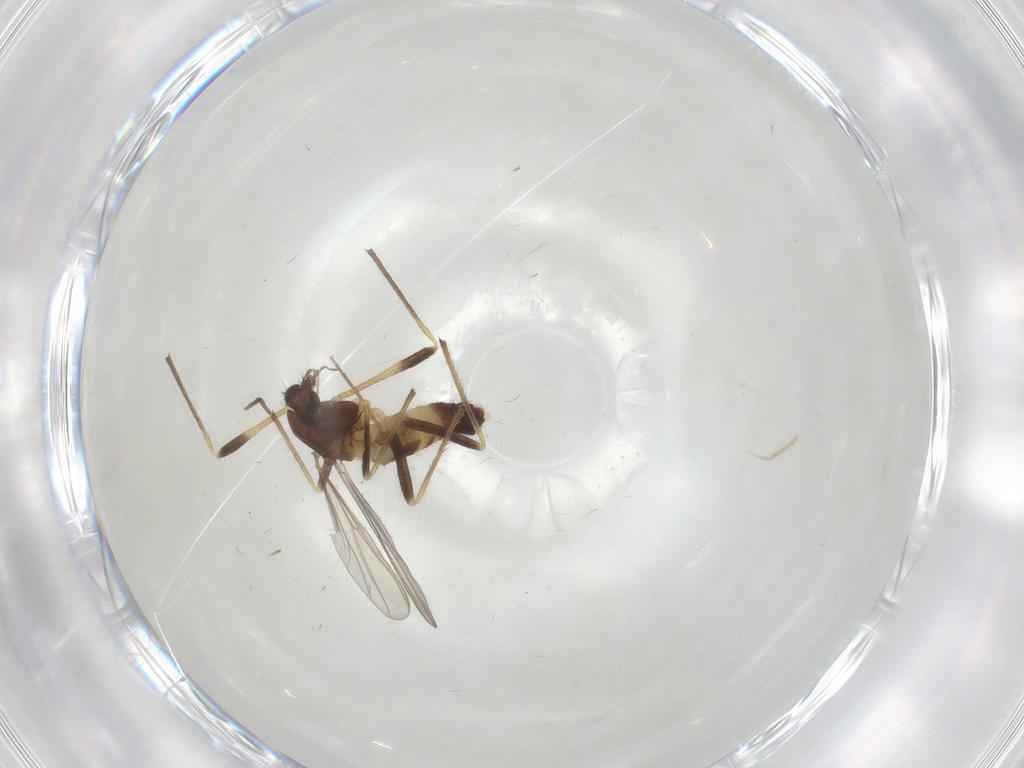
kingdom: Animalia
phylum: Arthropoda
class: Insecta
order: Diptera
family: Chironomidae
